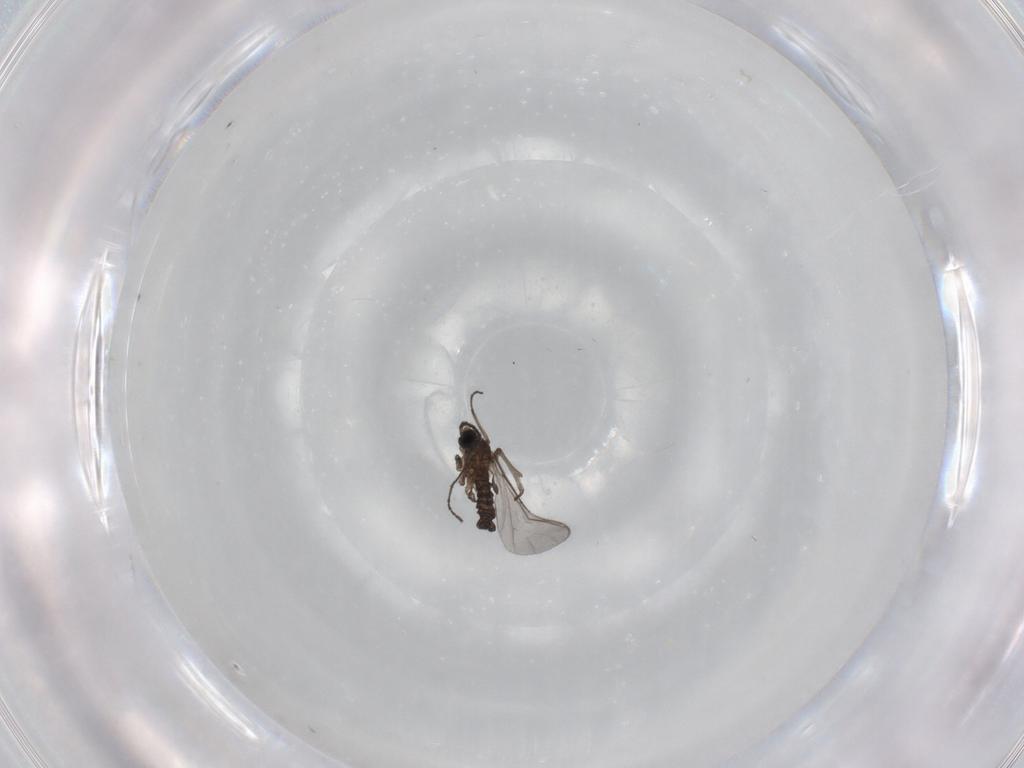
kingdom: Animalia
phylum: Arthropoda
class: Insecta
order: Diptera
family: Sciaridae
